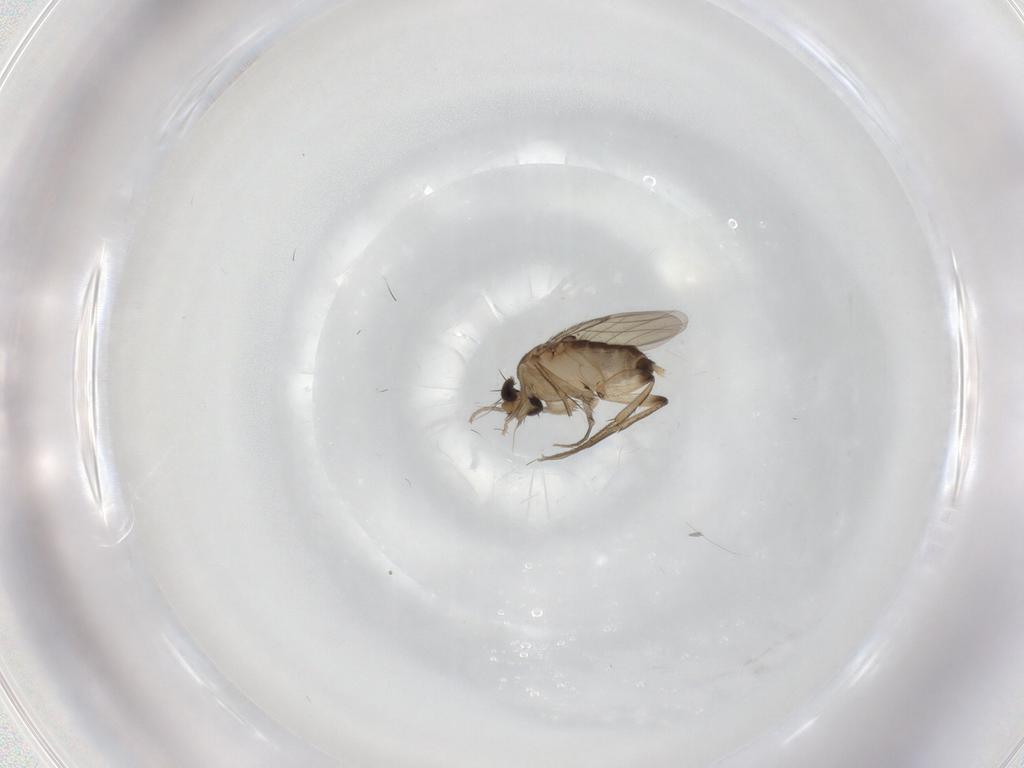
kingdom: Animalia
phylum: Arthropoda
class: Insecta
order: Diptera
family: Phoridae
